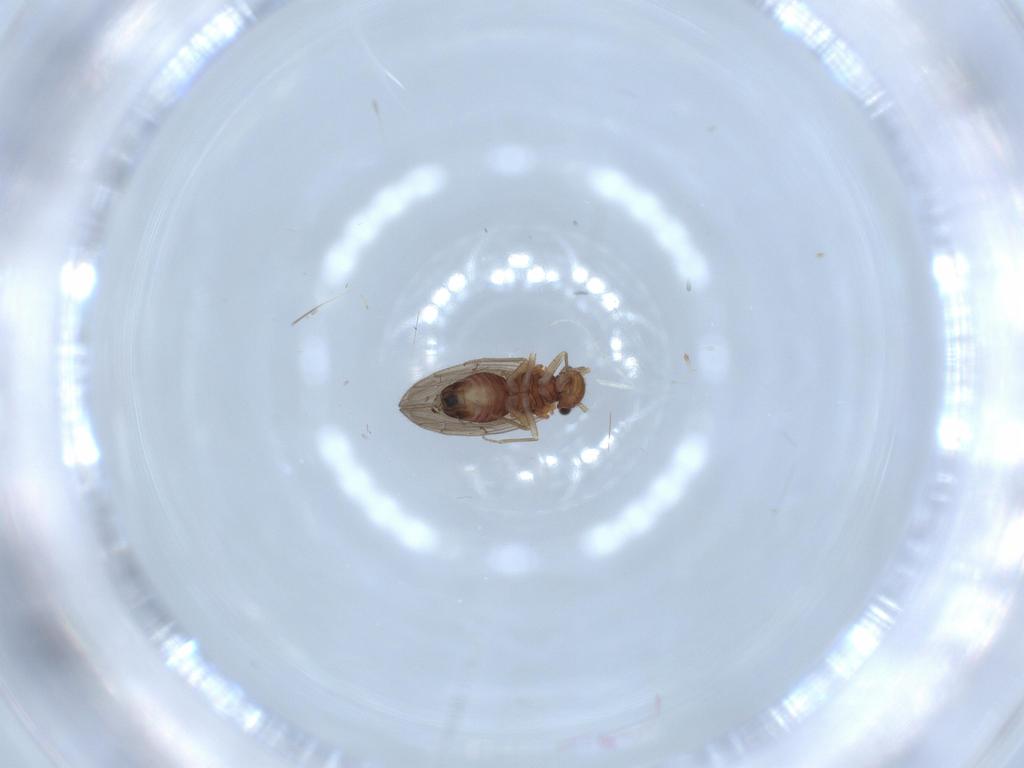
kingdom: Animalia
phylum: Arthropoda
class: Insecta
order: Psocodea
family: Ectopsocidae
